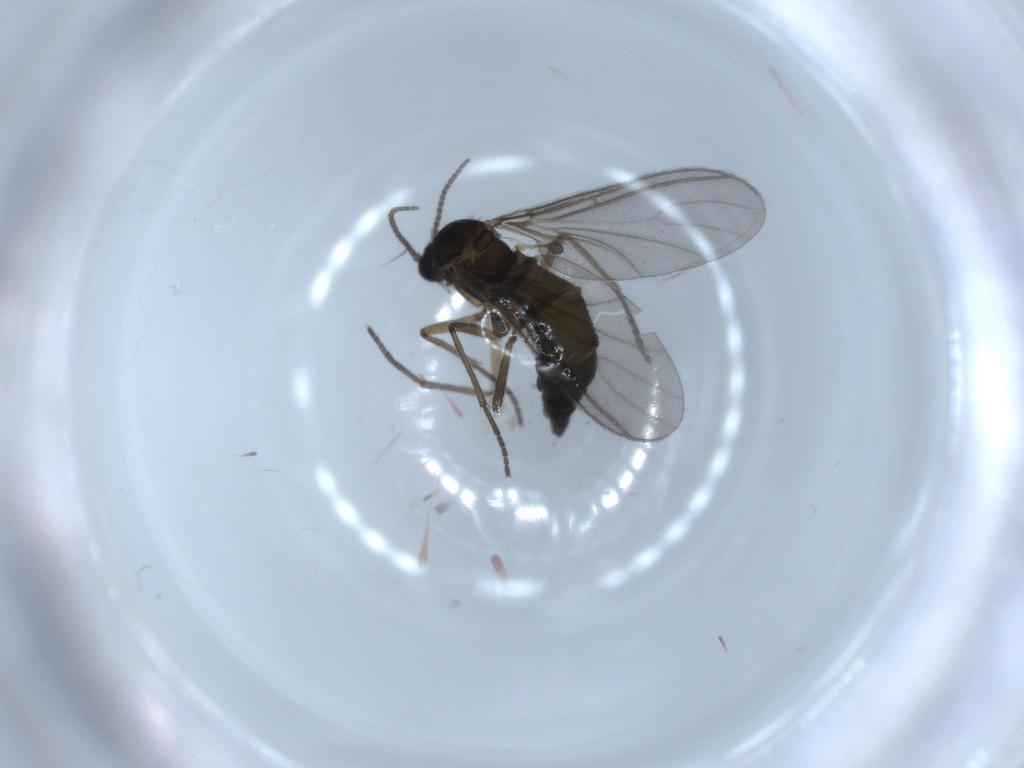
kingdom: Animalia
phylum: Arthropoda
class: Insecta
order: Diptera
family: Sciaridae
